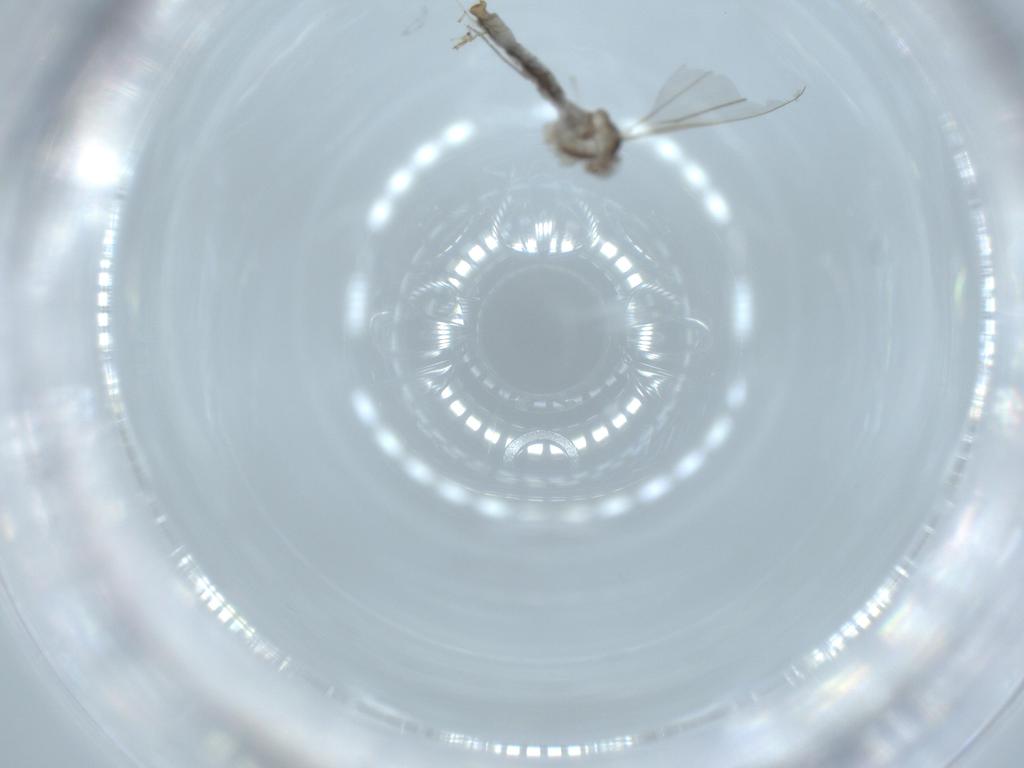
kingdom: Animalia
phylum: Arthropoda
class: Insecta
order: Diptera
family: Cecidomyiidae
